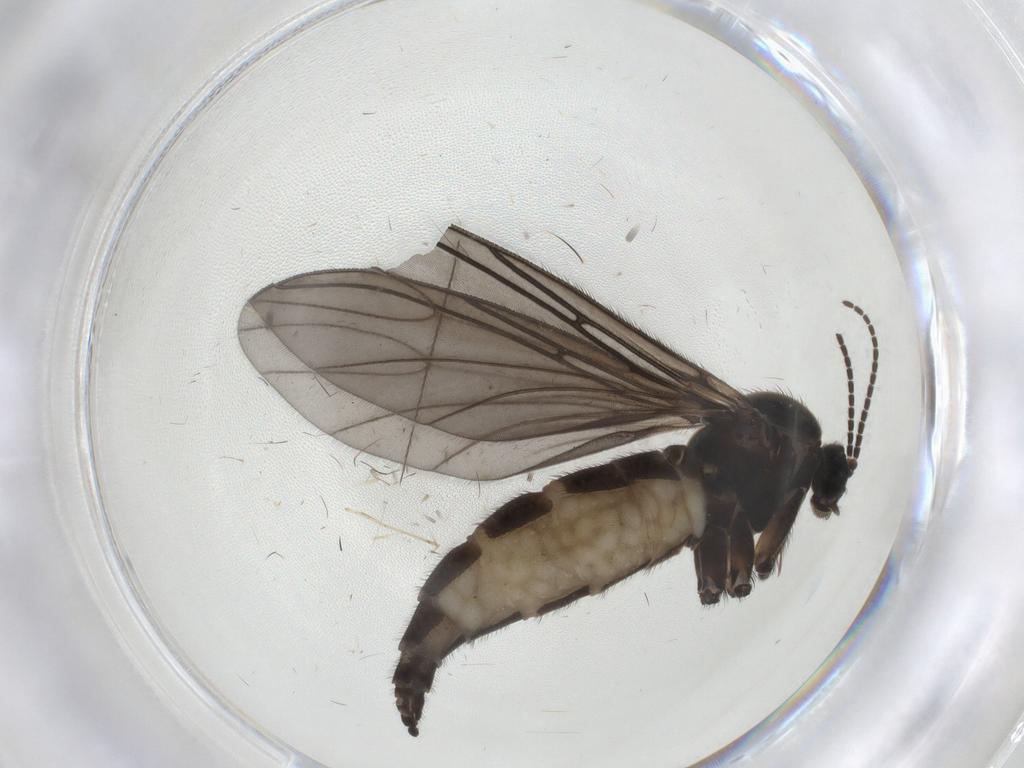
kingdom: Animalia
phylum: Arthropoda
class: Insecta
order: Diptera
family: Sciaridae
